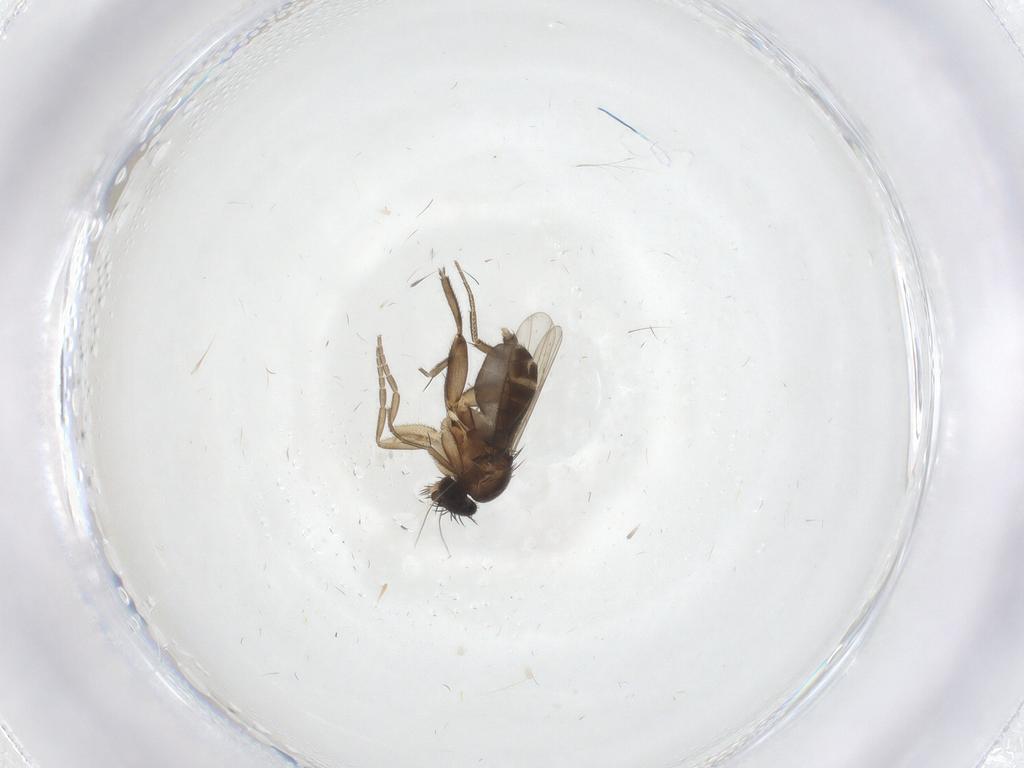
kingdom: Animalia
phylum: Arthropoda
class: Insecta
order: Diptera
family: Phoridae
